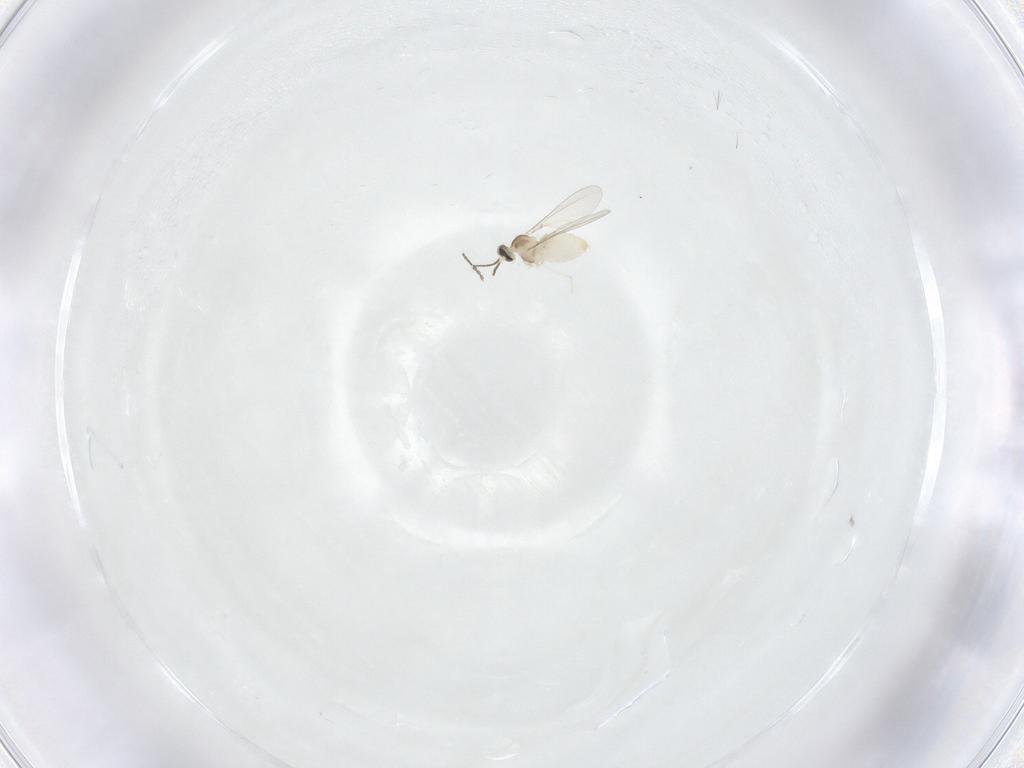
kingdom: Animalia
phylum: Arthropoda
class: Insecta
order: Diptera
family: Cecidomyiidae
